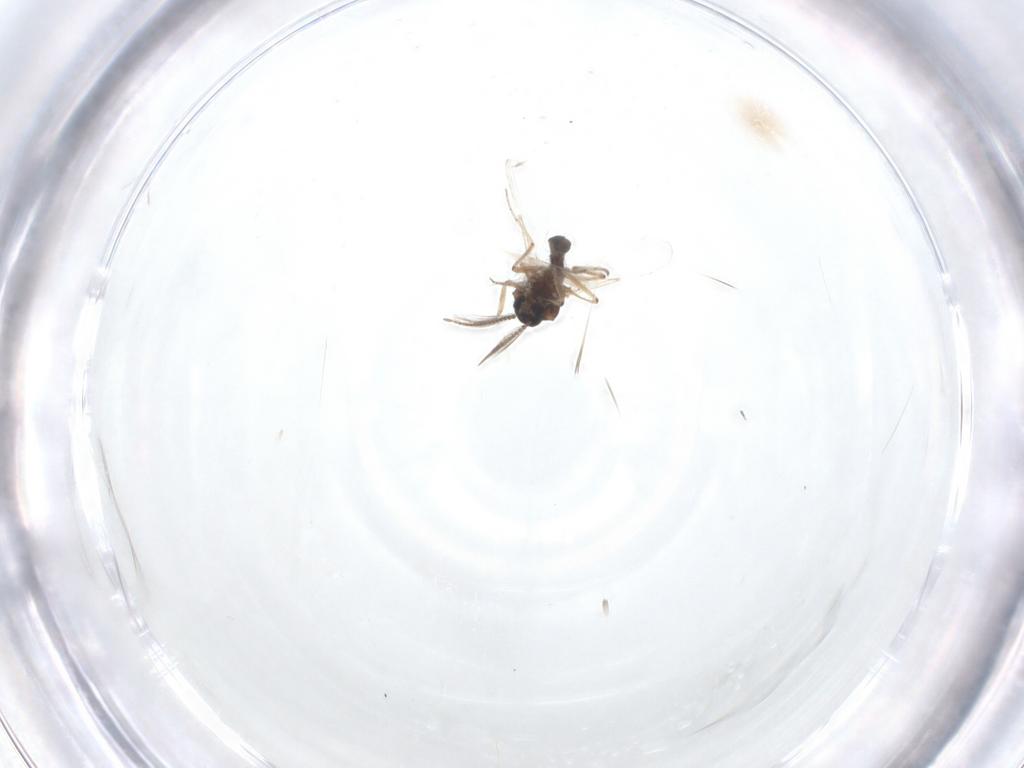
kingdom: Animalia
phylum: Arthropoda
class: Insecta
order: Diptera
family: Ceratopogonidae
